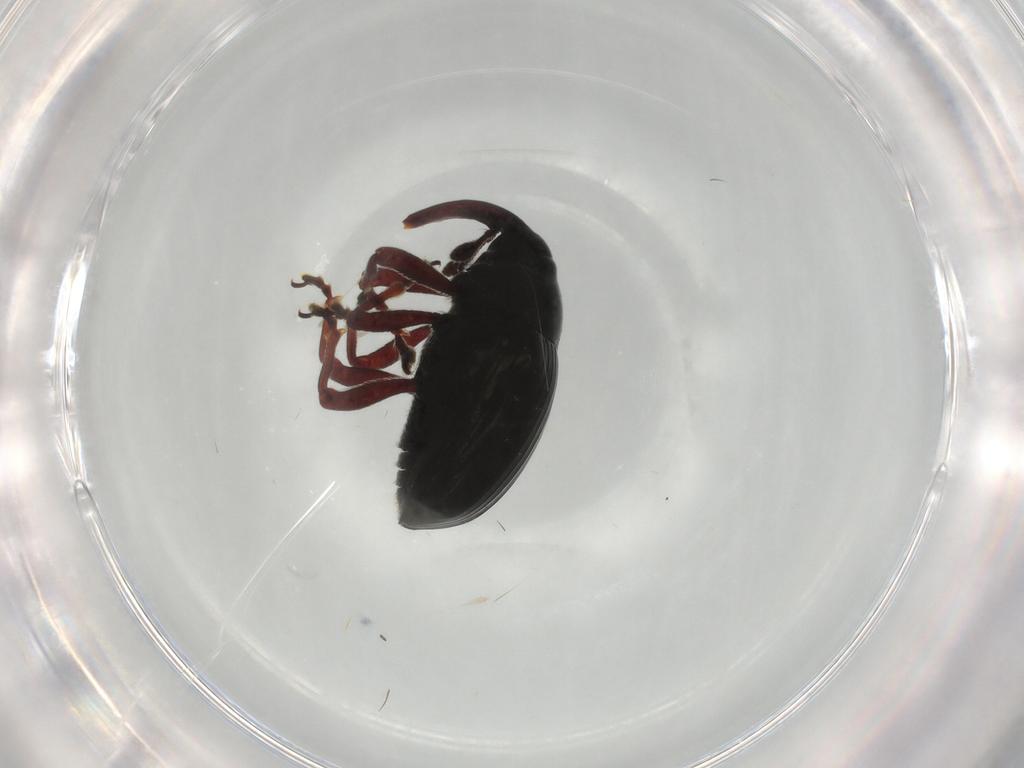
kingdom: Animalia
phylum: Arthropoda
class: Insecta
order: Coleoptera
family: Curculionidae
